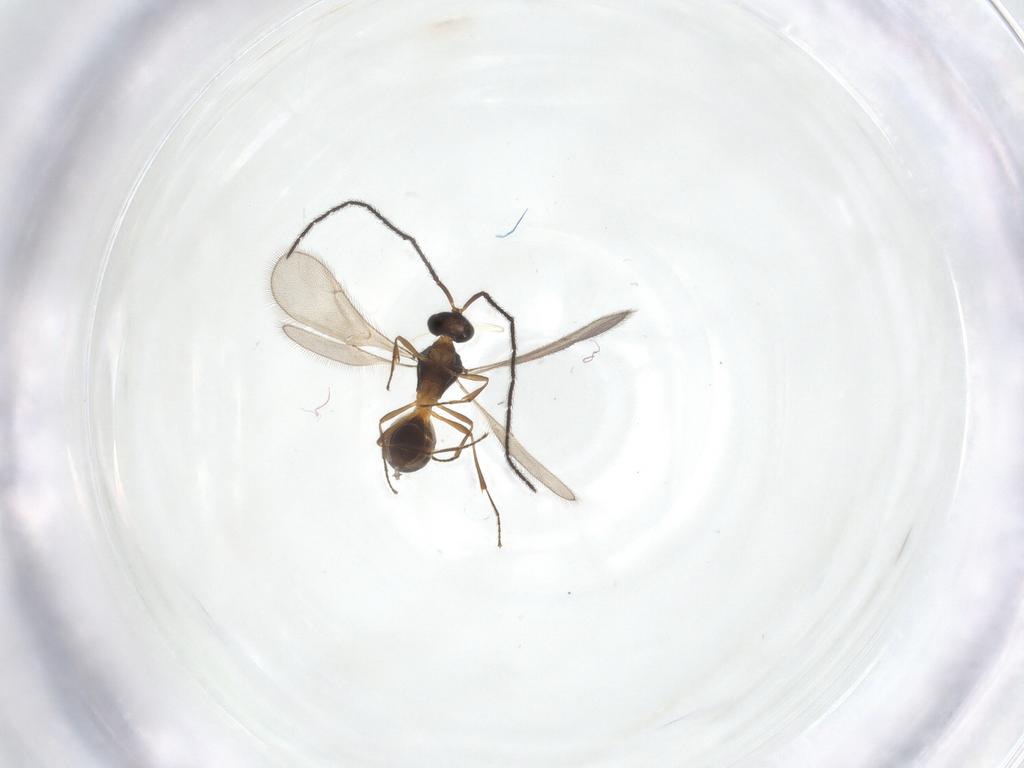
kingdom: Animalia
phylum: Arthropoda
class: Insecta
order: Hymenoptera
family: Scelionidae
